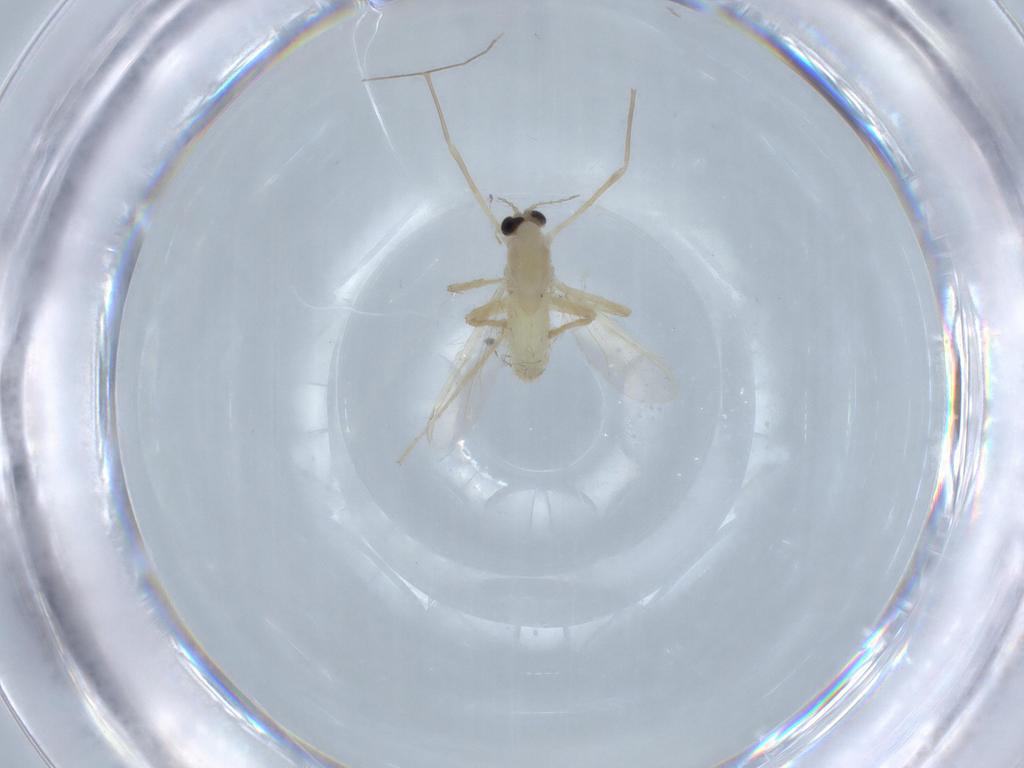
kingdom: Animalia
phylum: Arthropoda
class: Insecta
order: Diptera
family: Chironomidae
